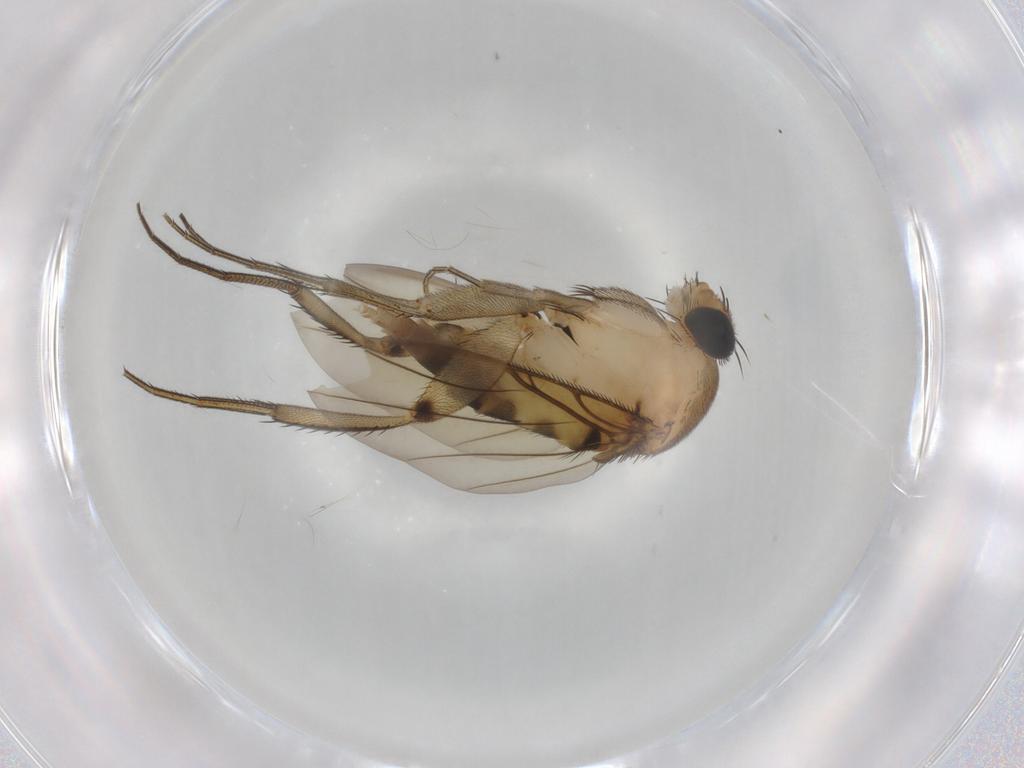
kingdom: Animalia
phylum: Arthropoda
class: Insecta
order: Diptera
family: Phoridae
